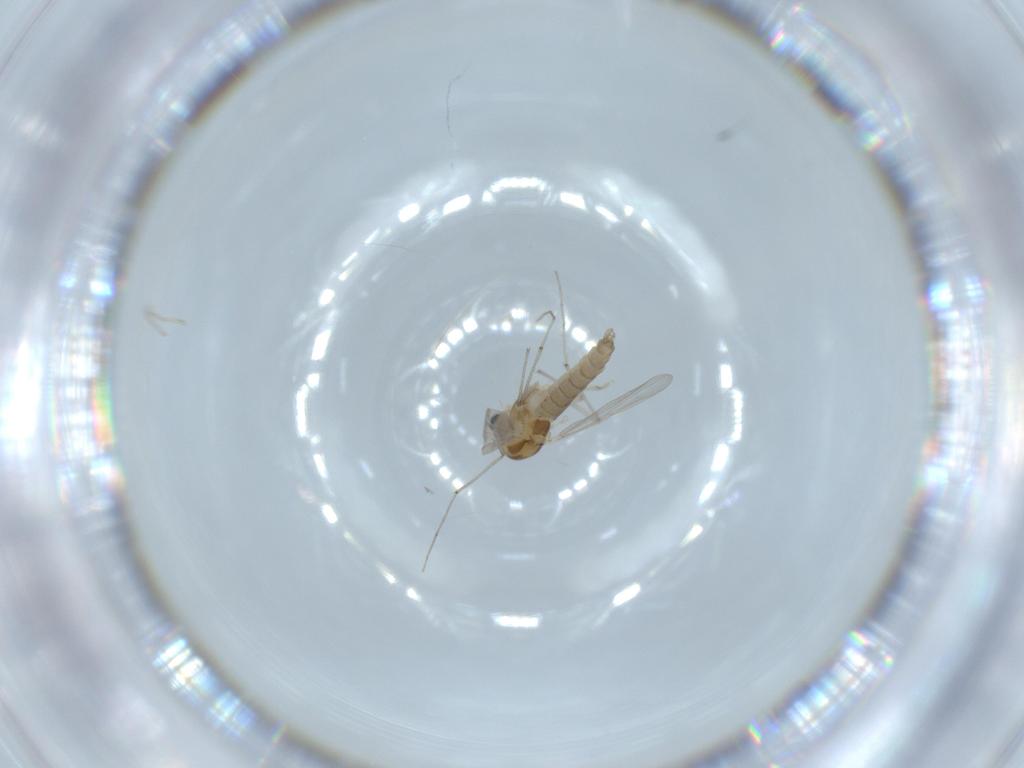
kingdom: Animalia
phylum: Arthropoda
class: Insecta
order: Diptera
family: Chironomidae
